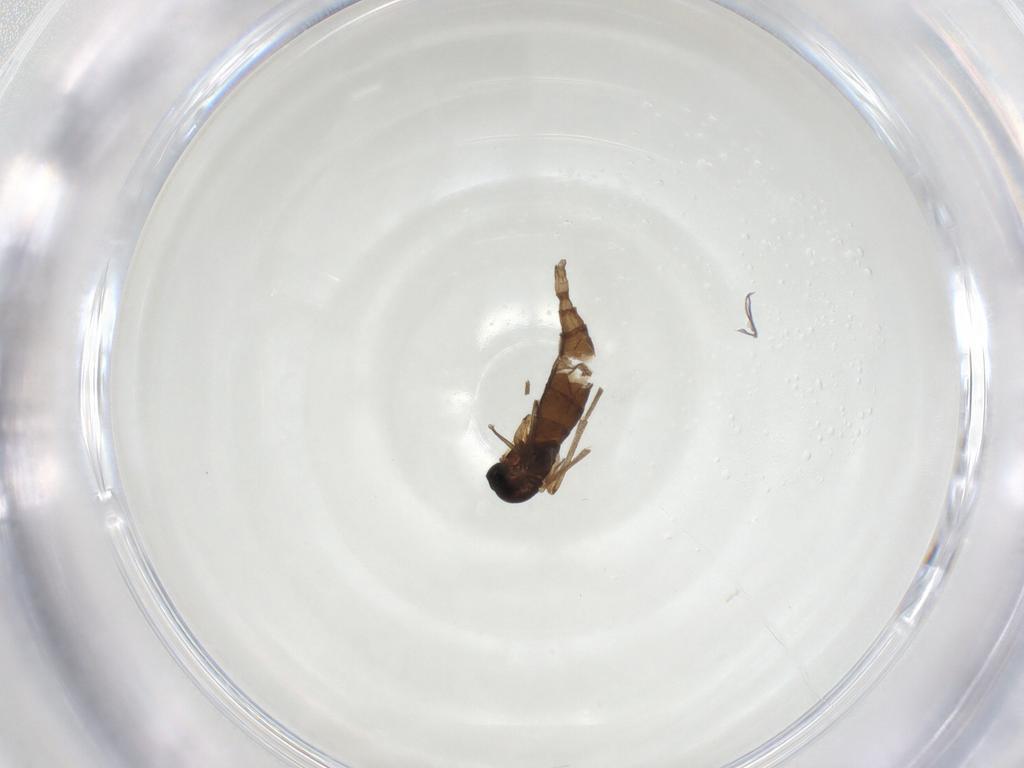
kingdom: Animalia
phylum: Arthropoda
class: Insecta
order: Diptera
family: Sciaridae
